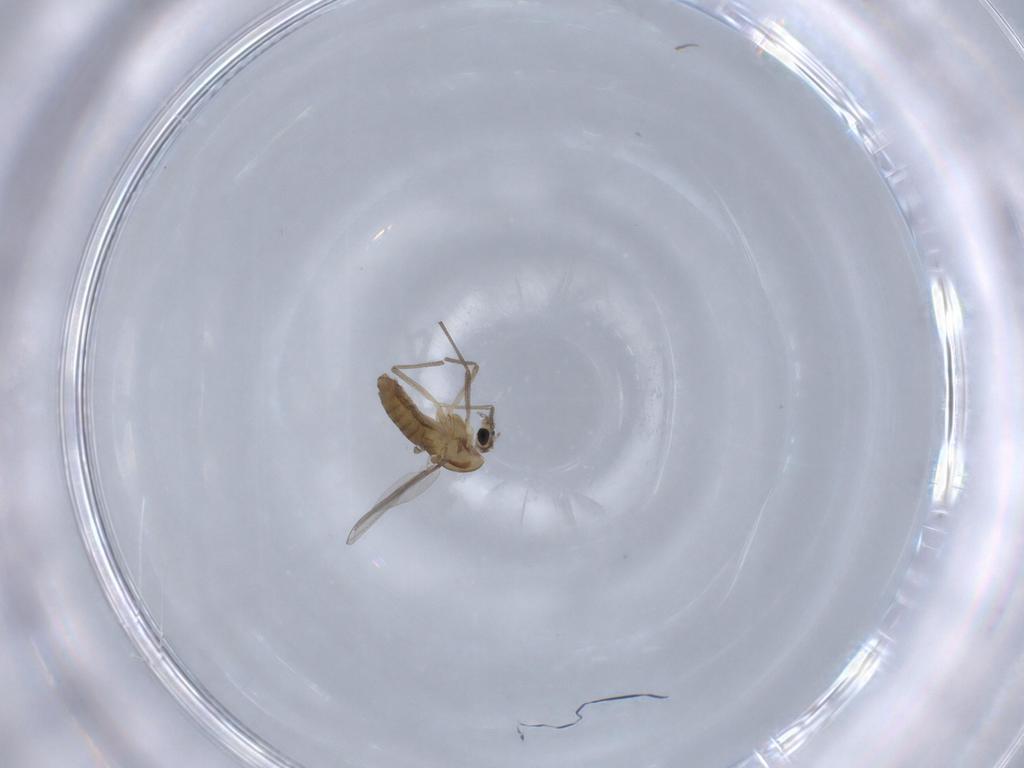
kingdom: Animalia
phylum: Arthropoda
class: Insecta
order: Diptera
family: Chironomidae
